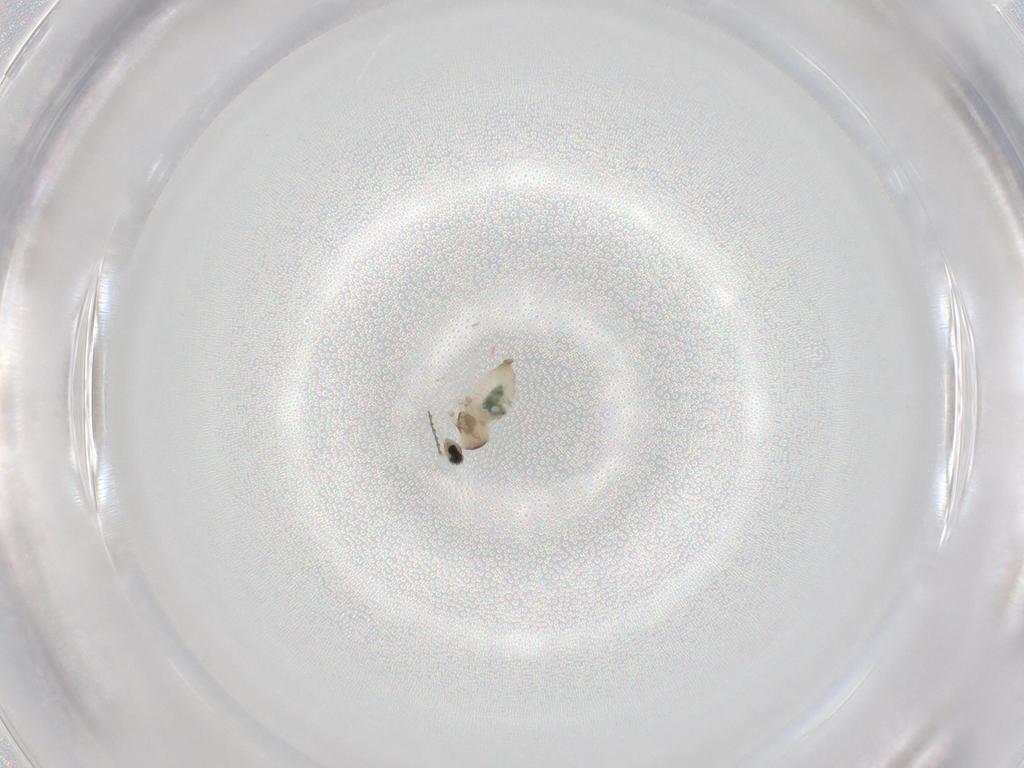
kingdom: Animalia
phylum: Arthropoda
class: Insecta
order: Diptera
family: Cecidomyiidae
